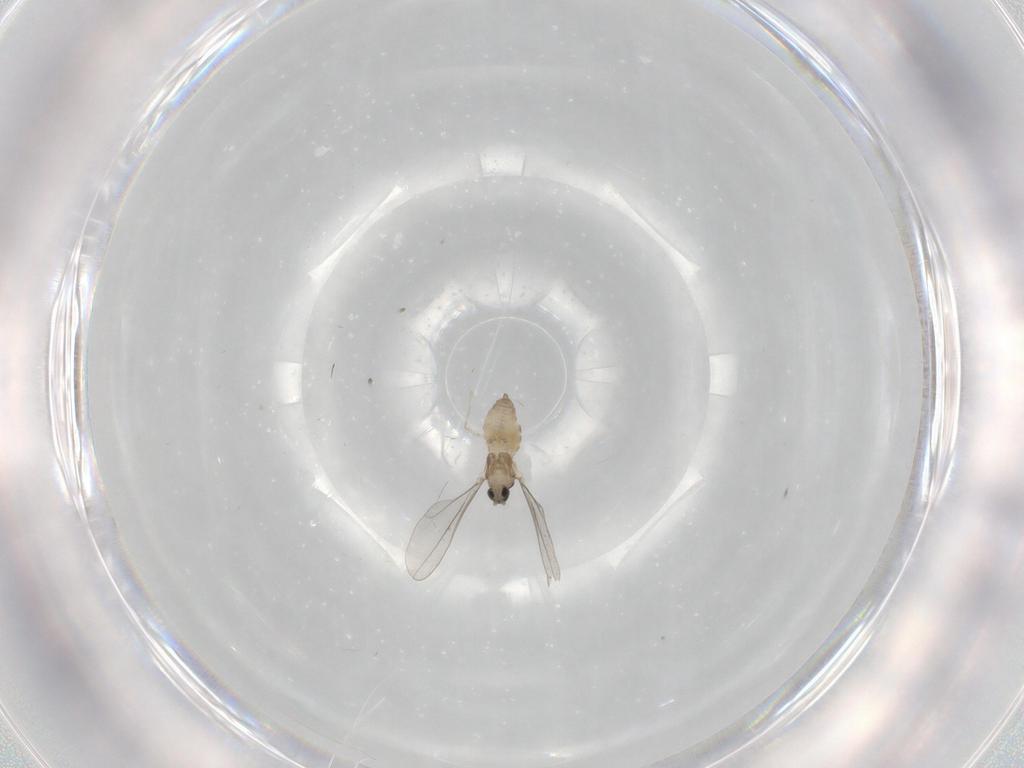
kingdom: Animalia
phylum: Arthropoda
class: Insecta
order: Diptera
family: Cecidomyiidae
